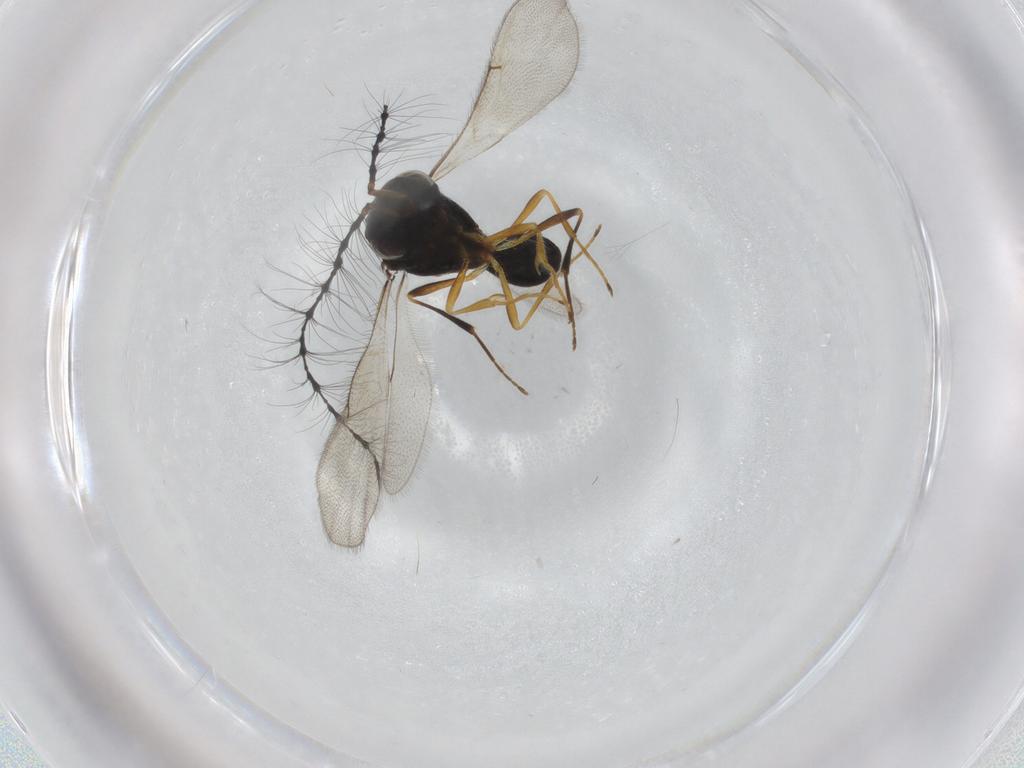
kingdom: Animalia
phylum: Arthropoda
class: Insecta
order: Hymenoptera
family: Scelionidae
